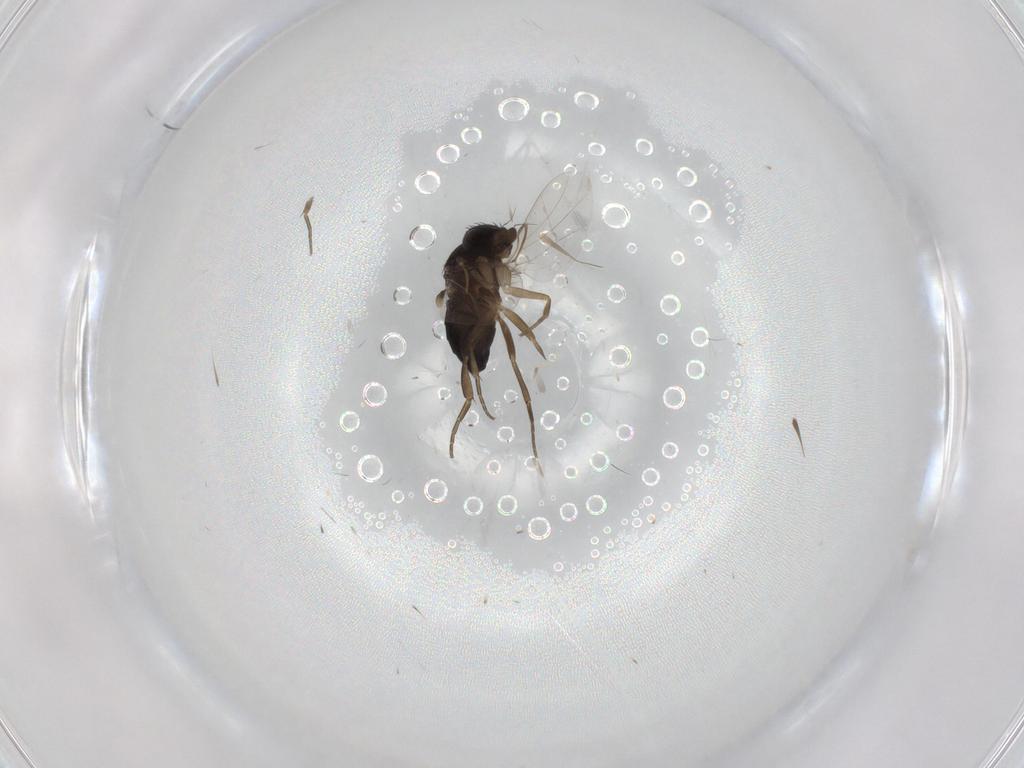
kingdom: Animalia
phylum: Arthropoda
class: Insecta
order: Diptera
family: Phoridae
